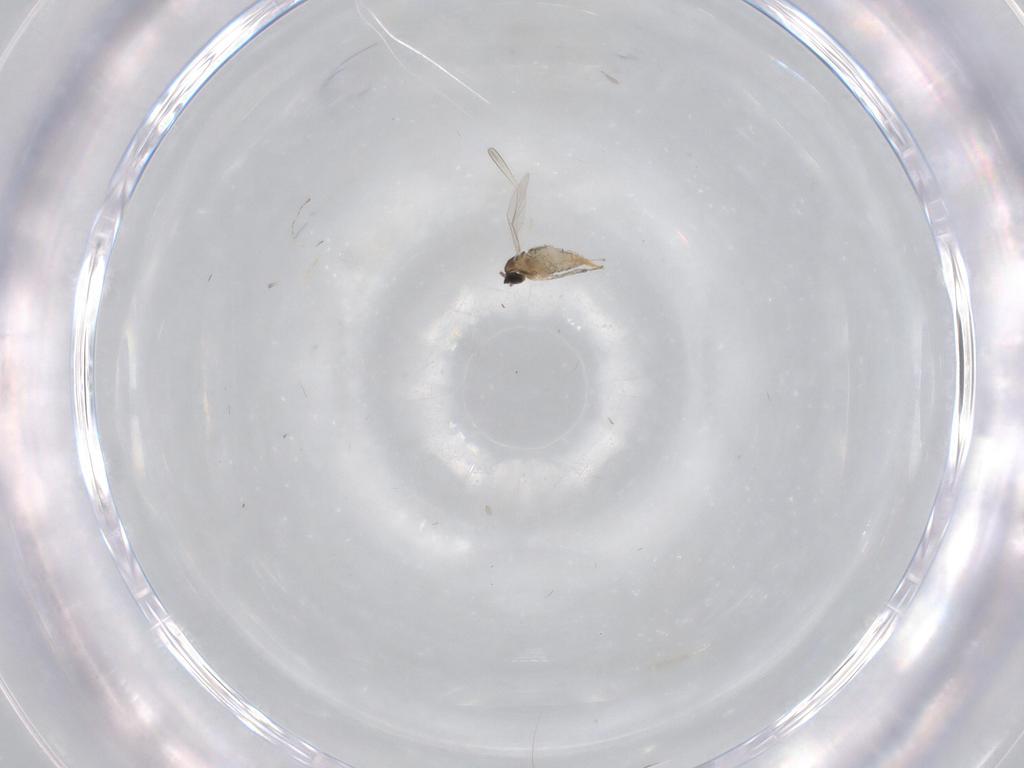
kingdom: Animalia
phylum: Arthropoda
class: Insecta
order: Diptera
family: Cecidomyiidae
